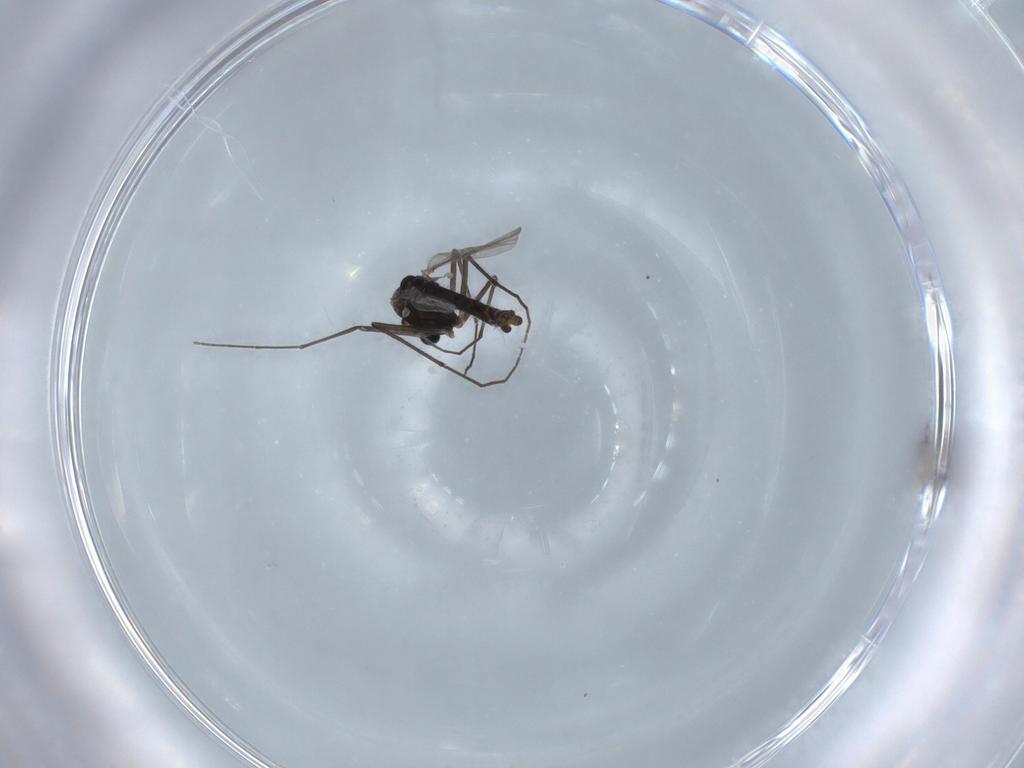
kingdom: Animalia
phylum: Arthropoda
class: Insecta
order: Diptera
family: Chironomidae
